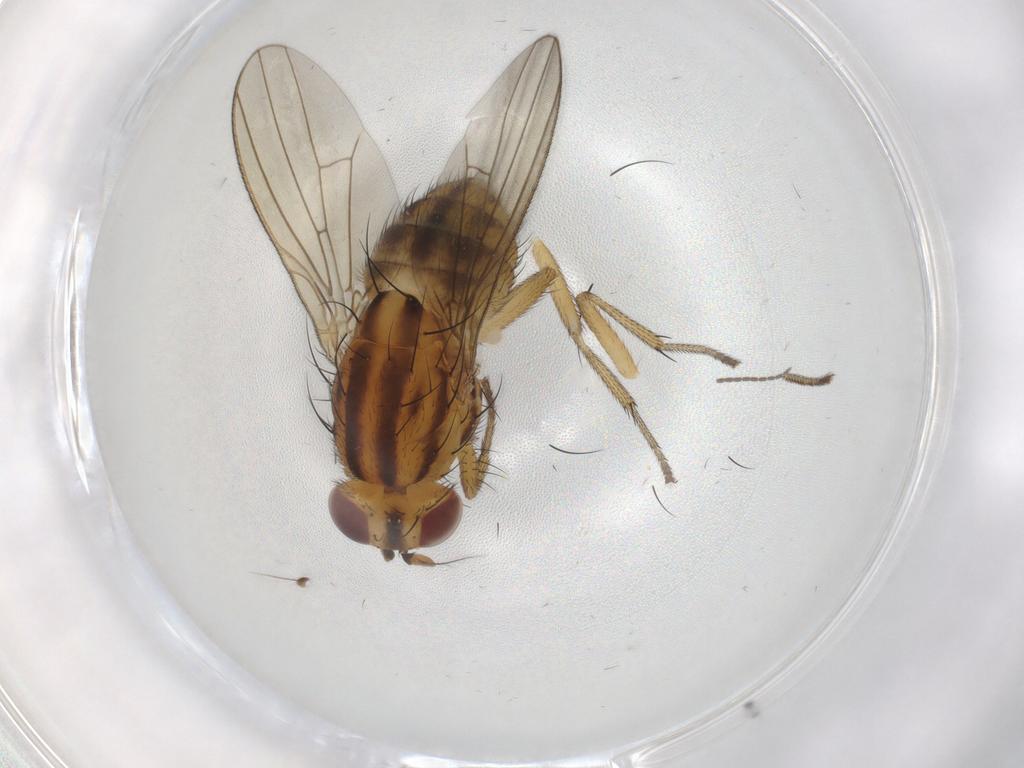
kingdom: Animalia
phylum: Arthropoda
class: Insecta
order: Diptera
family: Sciaridae
